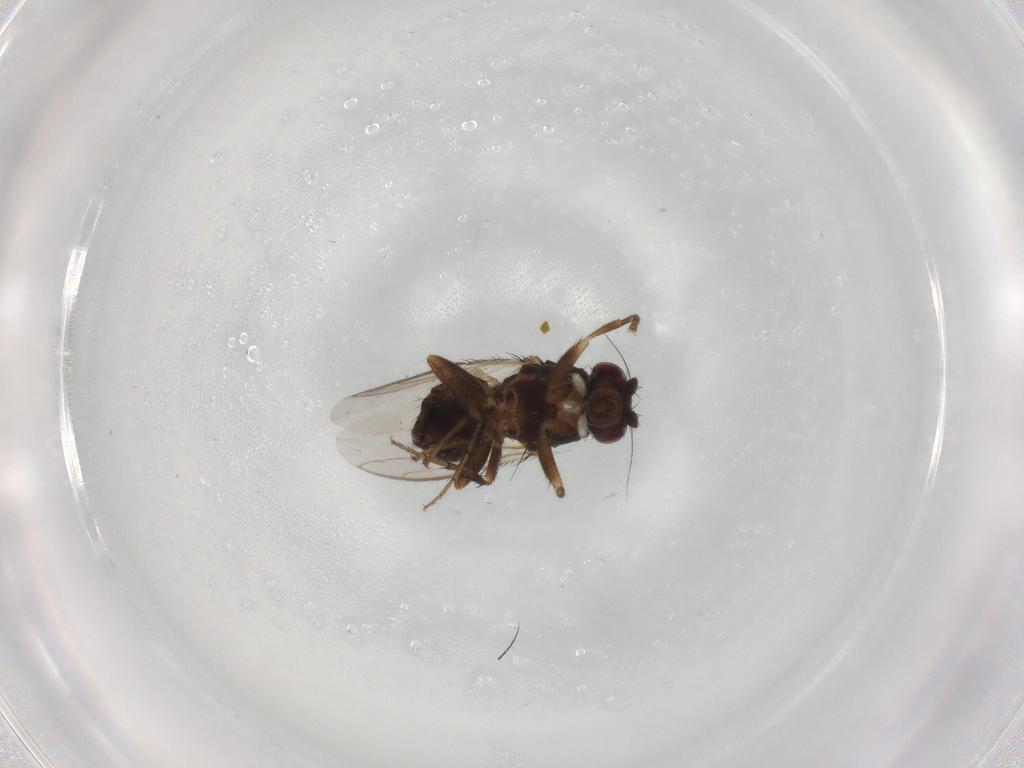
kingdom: Animalia
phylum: Arthropoda
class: Insecta
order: Diptera
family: Sphaeroceridae
